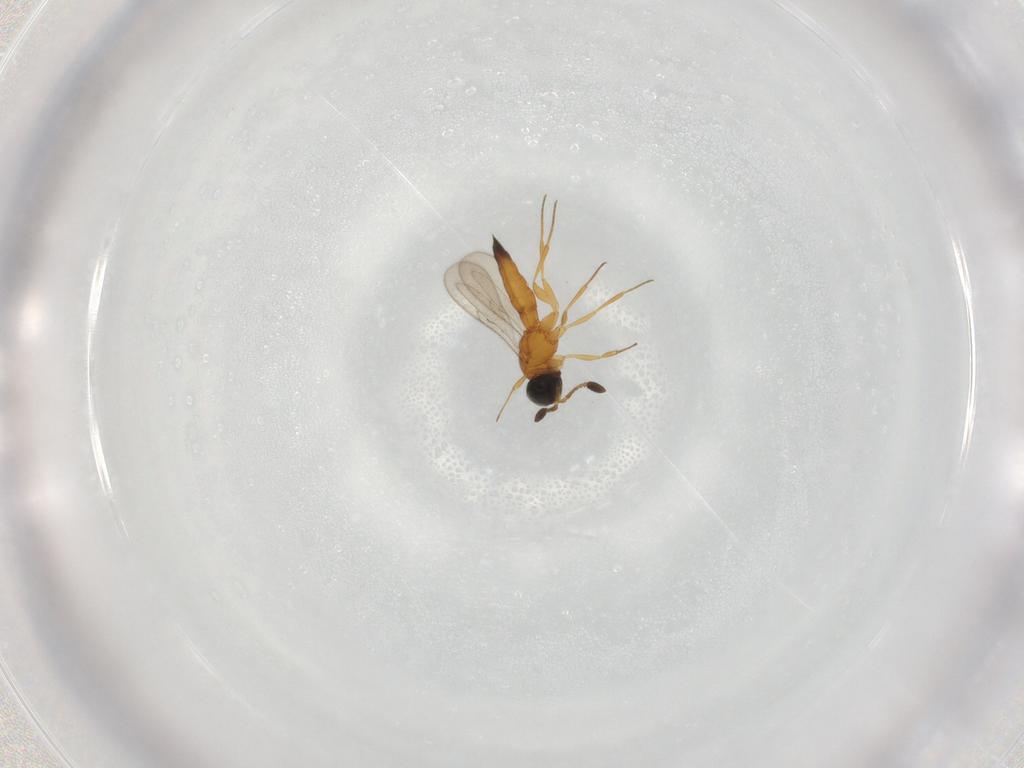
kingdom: Animalia
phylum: Arthropoda
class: Insecta
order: Hymenoptera
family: Scelionidae
